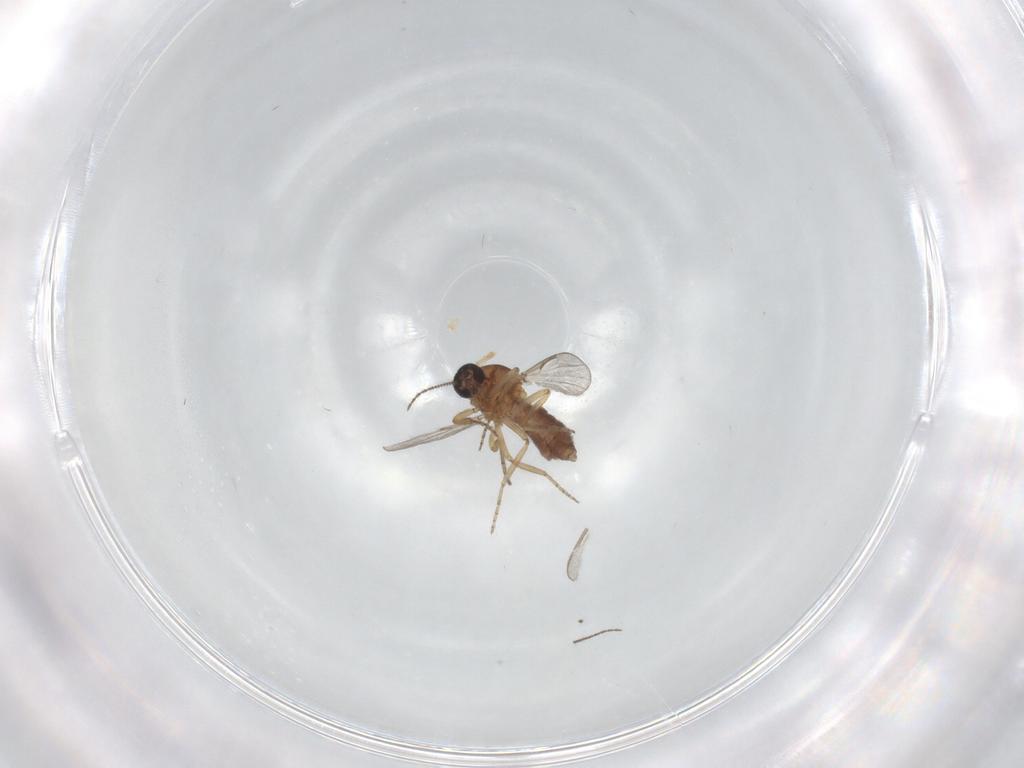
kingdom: Animalia
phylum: Arthropoda
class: Insecta
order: Diptera
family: Ceratopogonidae
